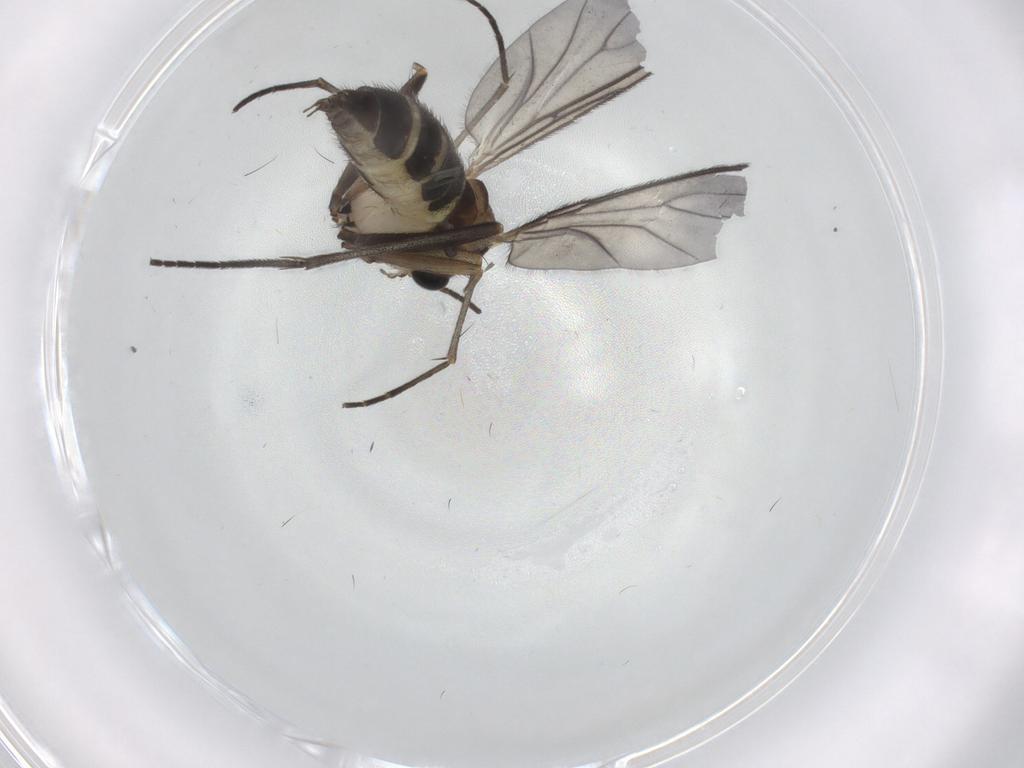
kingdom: Animalia
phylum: Arthropoda
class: Insecta
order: Diptera
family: Sciaridae
